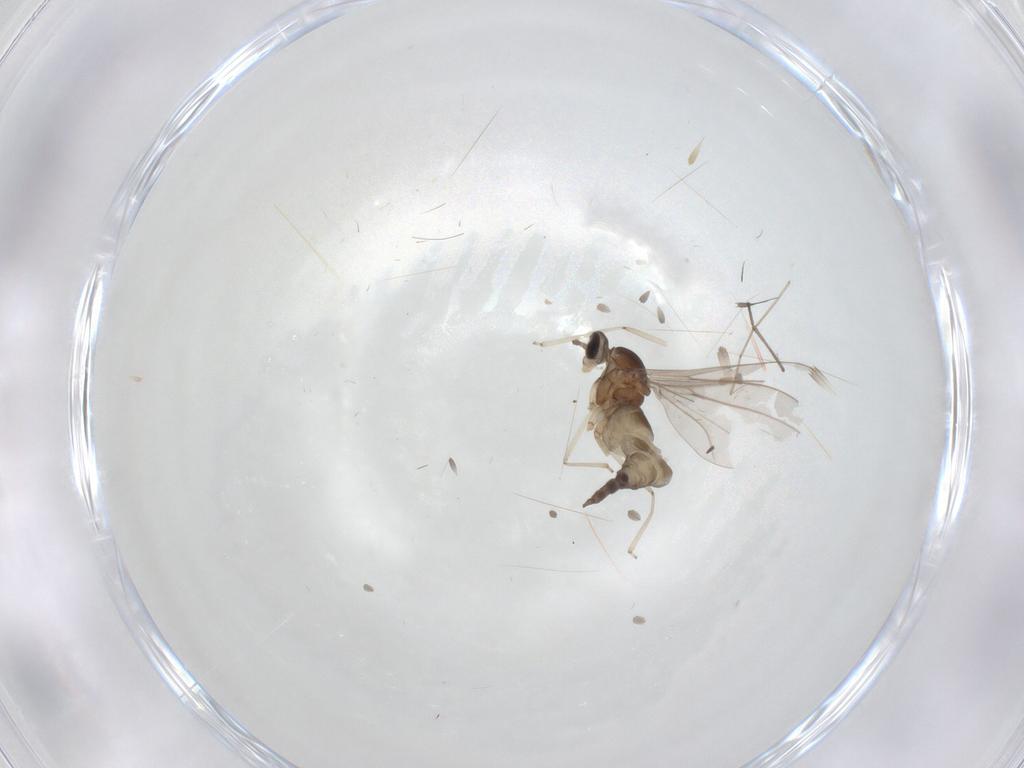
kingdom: Animalia
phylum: Arthropoda
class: Insecta
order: Diptera
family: Cecidomyiidae
